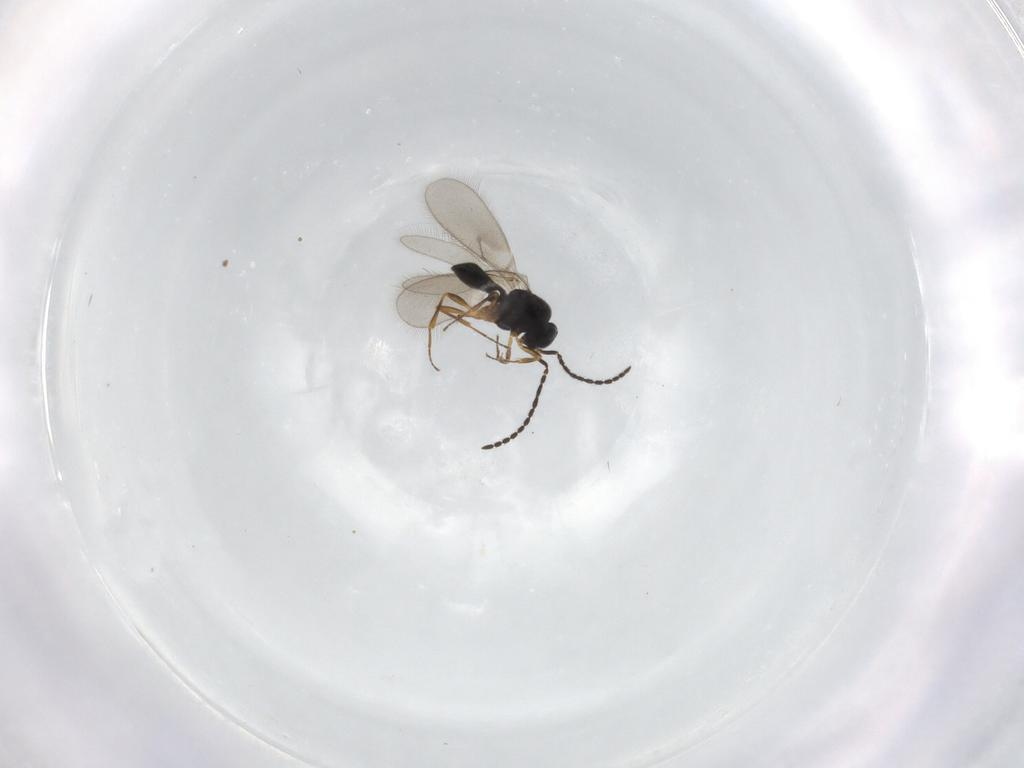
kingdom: Animalia
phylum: Arthropoda
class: Insecta
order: Hymenoptera
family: Scelionidae
